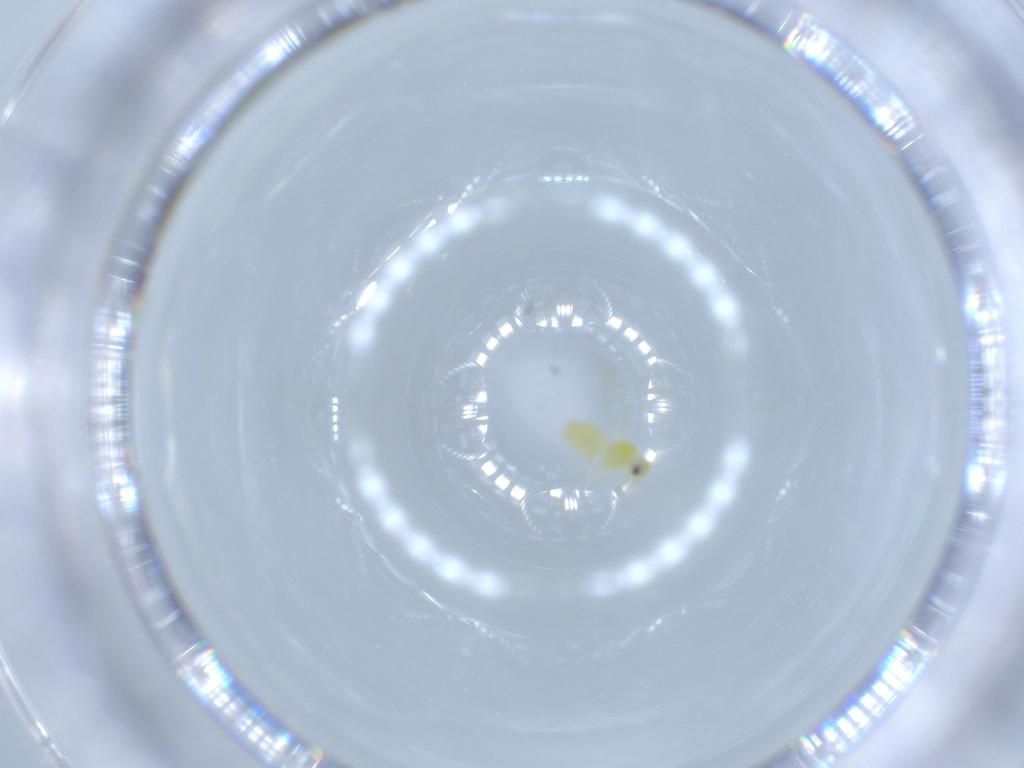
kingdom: Animalia
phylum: Arthropoda
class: Insecta
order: Hemiptera
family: Aleyrodidae
